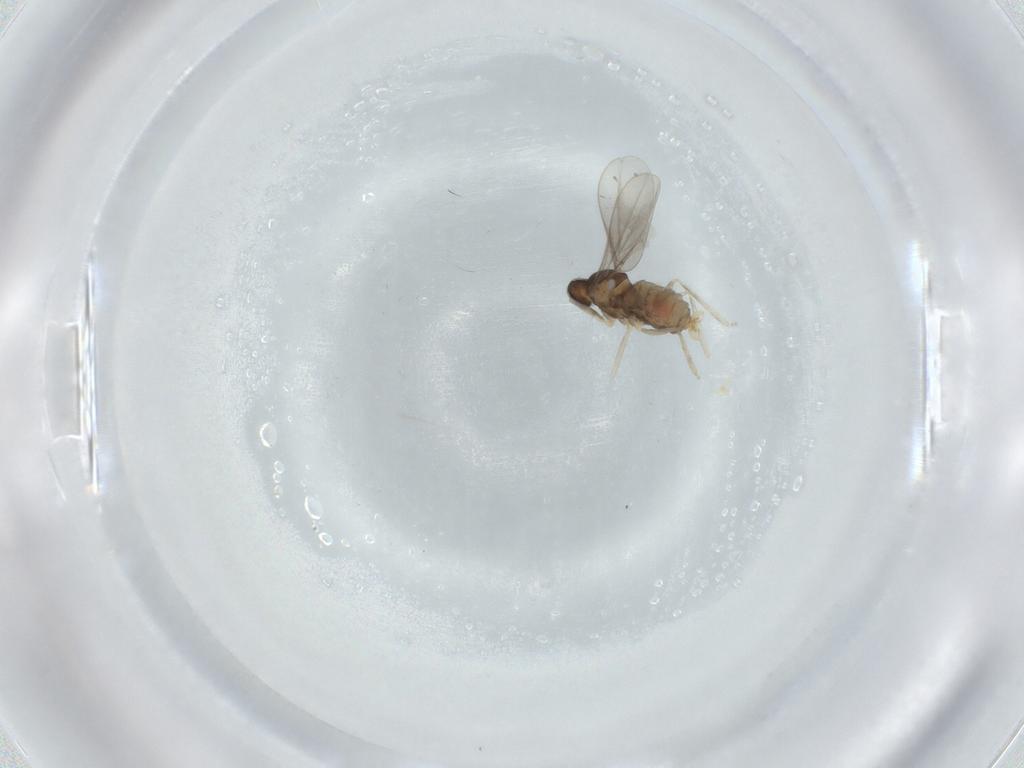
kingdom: Animalia
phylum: Arthropoda
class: Insecta
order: Diptera
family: Cecidomyiidae
